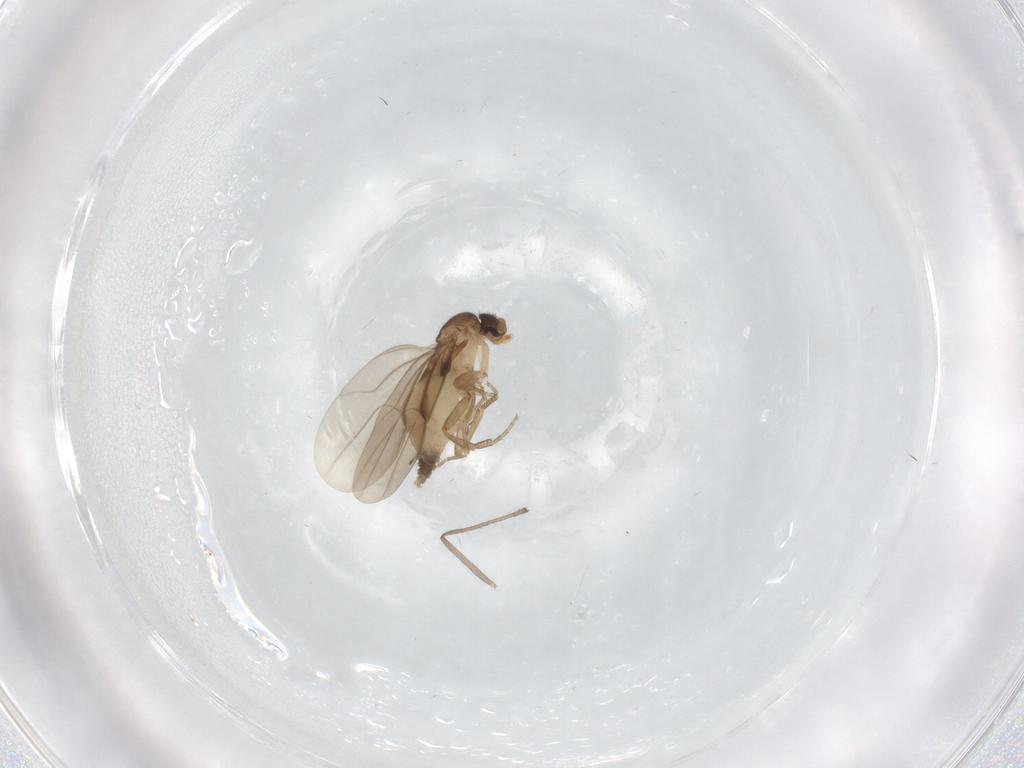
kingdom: Animalia
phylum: Arthropoda
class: Insecta
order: Diptera
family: Phoridae
